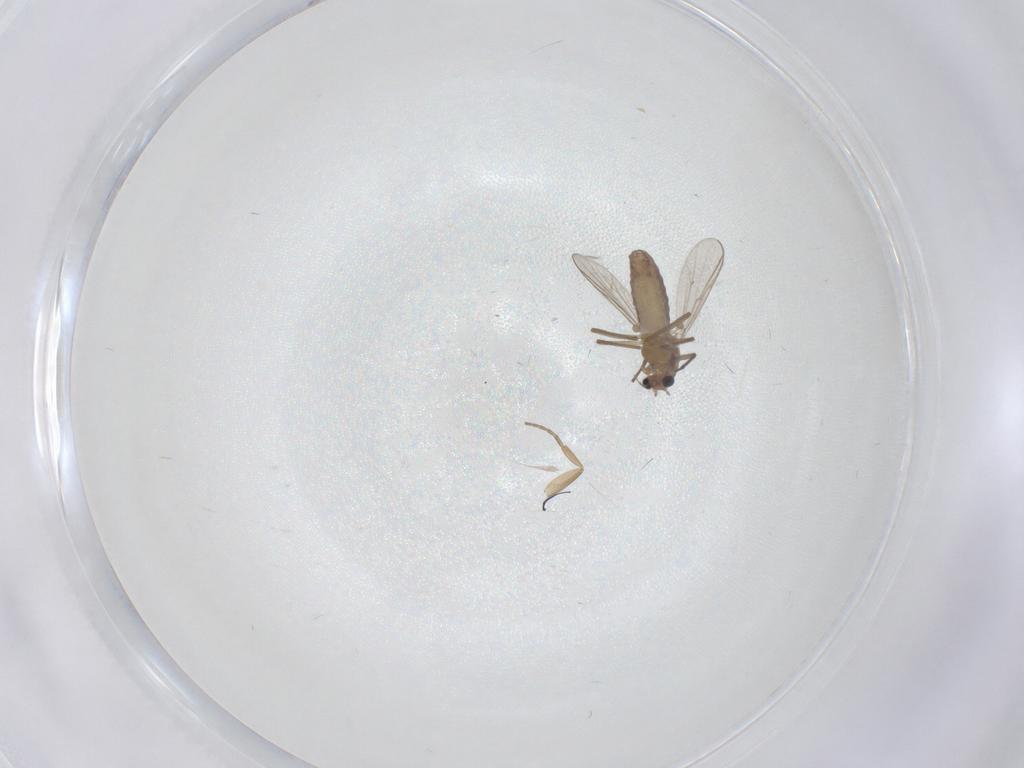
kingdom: Animalia
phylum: Arthropoda
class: Insecta
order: Diptera
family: Chironomidae
